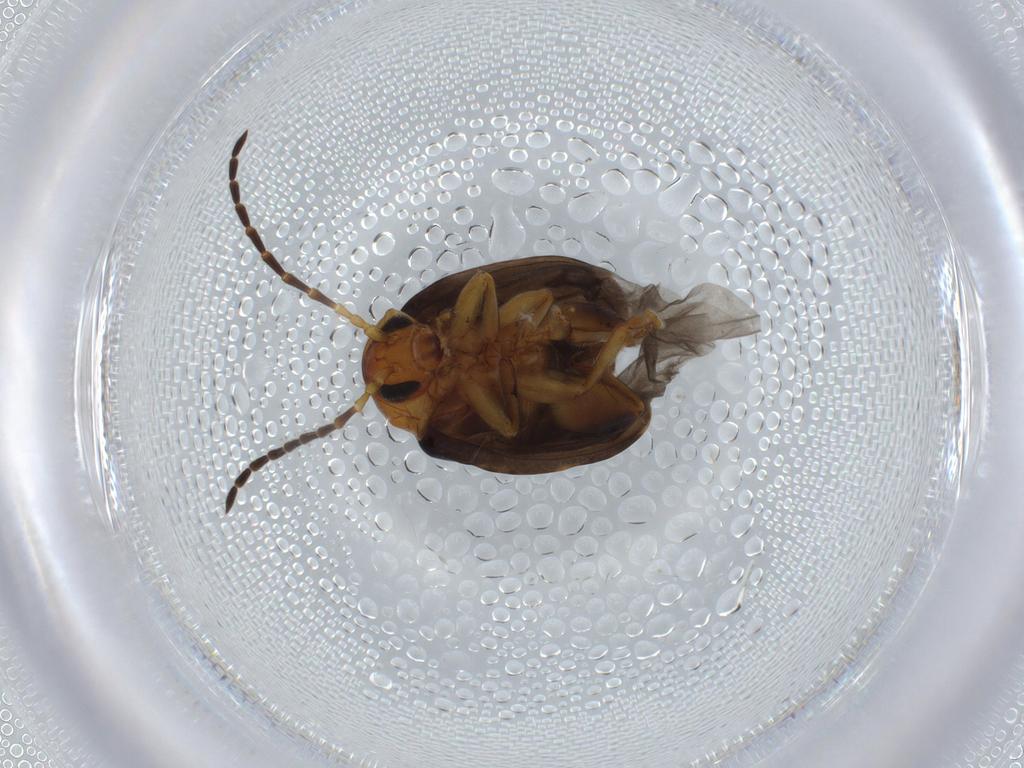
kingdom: Animalia
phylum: Arthropoda
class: Insecta
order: Coleoptera
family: Chrysomelidae
